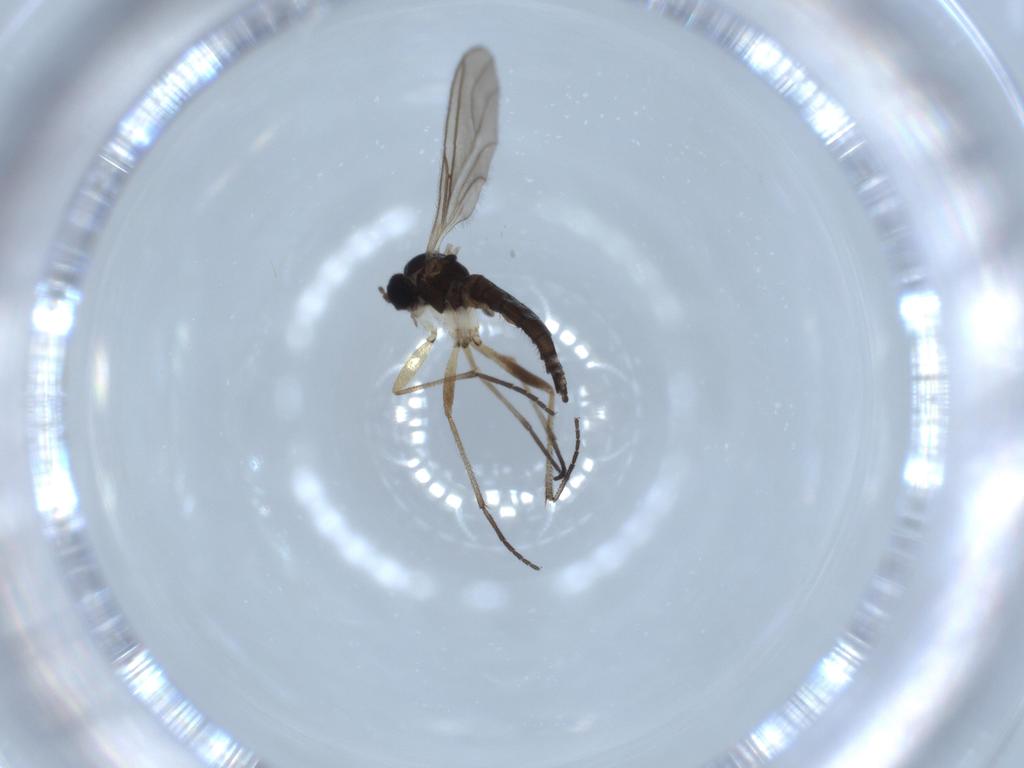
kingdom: Animalia
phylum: Arthropoda
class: Insecta
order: Diptera
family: Sciaridae
